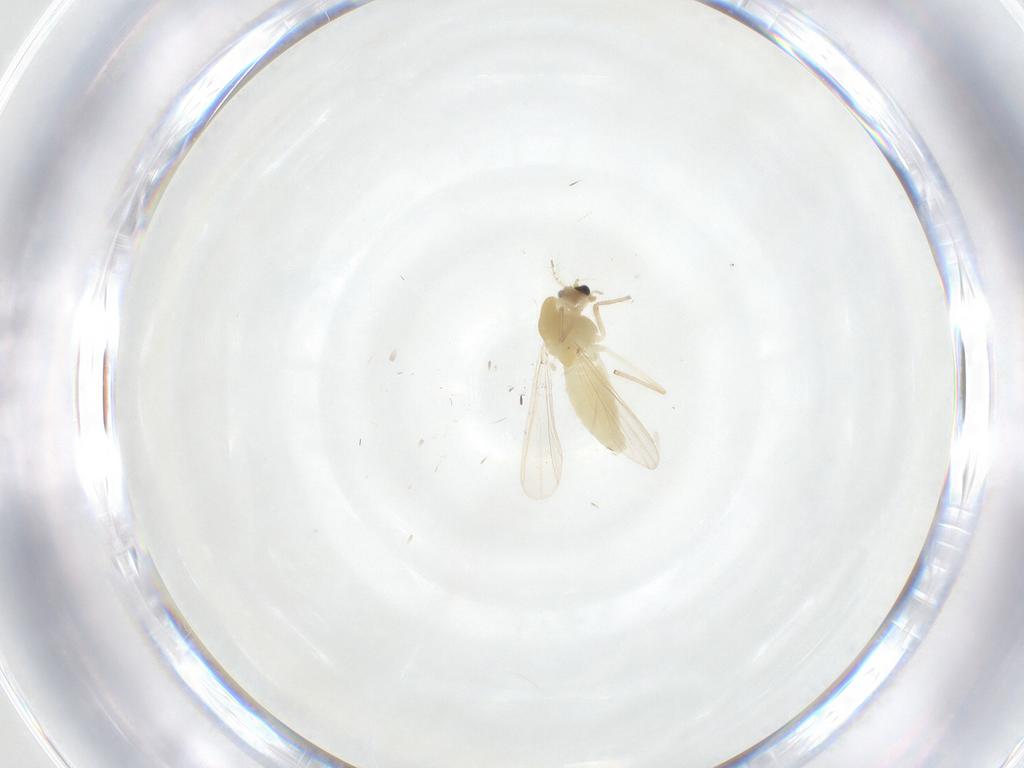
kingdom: Animalia
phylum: Arthropoda
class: Insecta
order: Diptera
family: Chironomidae
